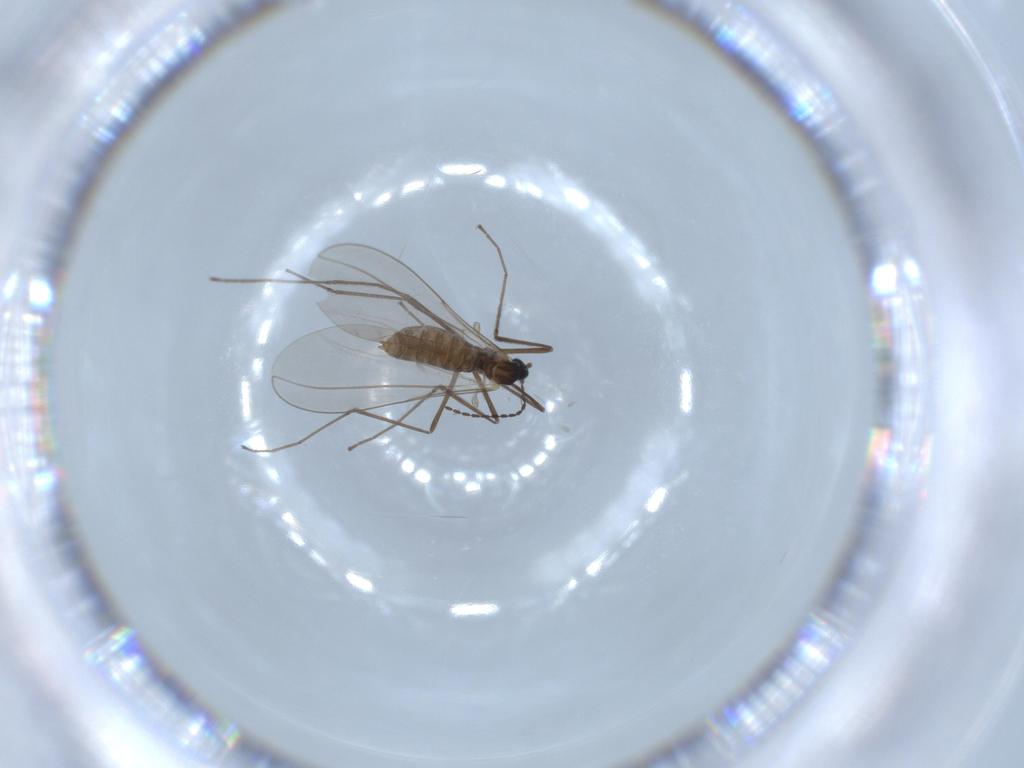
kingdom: Animalia
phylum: Arthropoda
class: Insecta
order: Diptera
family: Cecidomyiidae
